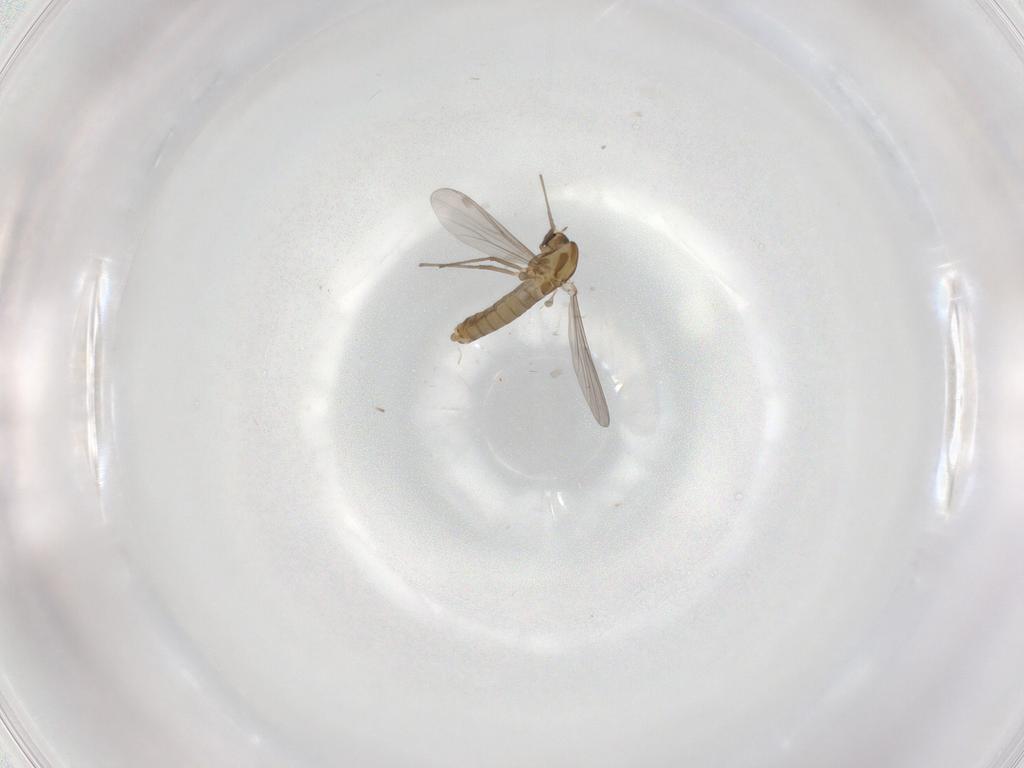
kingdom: Animalia
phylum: Arthropoda
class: Insecta
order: Diptera
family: Chironomidae
